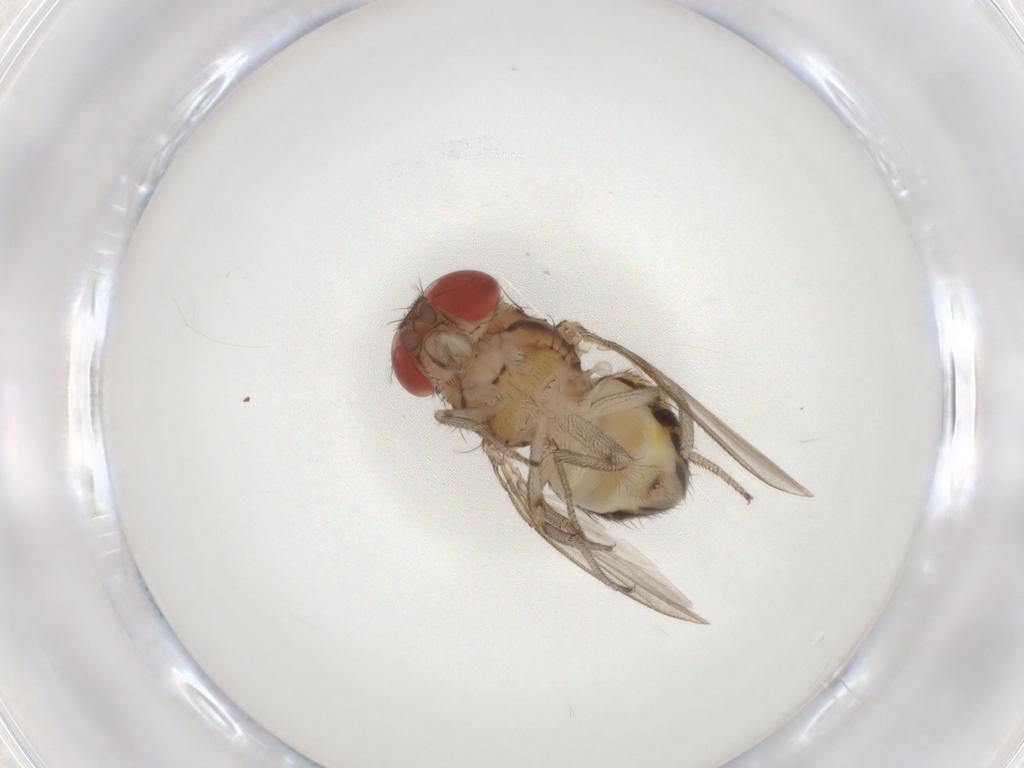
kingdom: Animalia
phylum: Arthropoda
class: Insecta
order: Diptera
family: Drosophilidae
